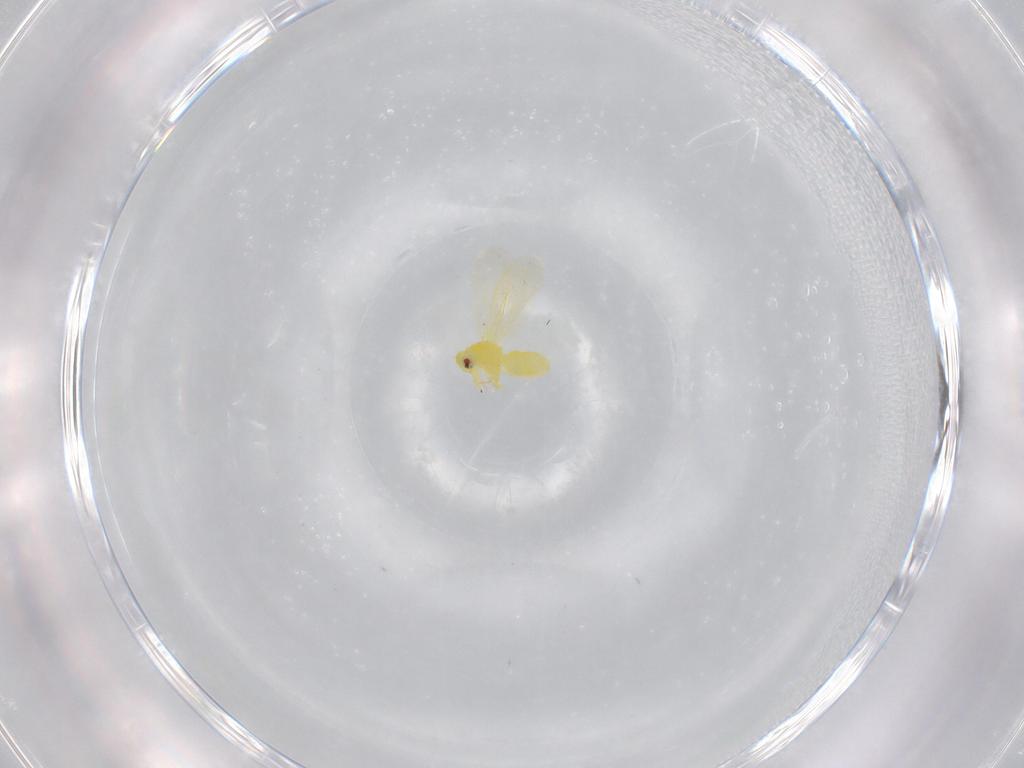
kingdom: Animalia
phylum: Arthropoda
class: Insecta
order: Hemiptera
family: Aleyrodidae
